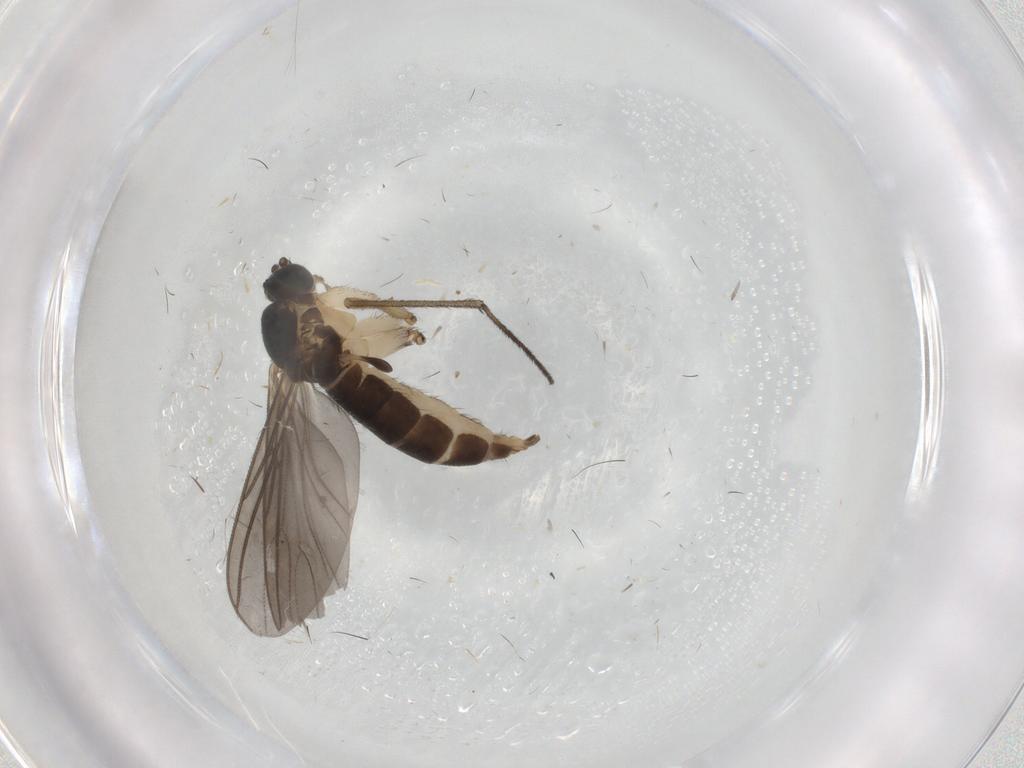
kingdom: Animalia
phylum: Arthropoda
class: Insecta
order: Diptera
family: Sciaridae
